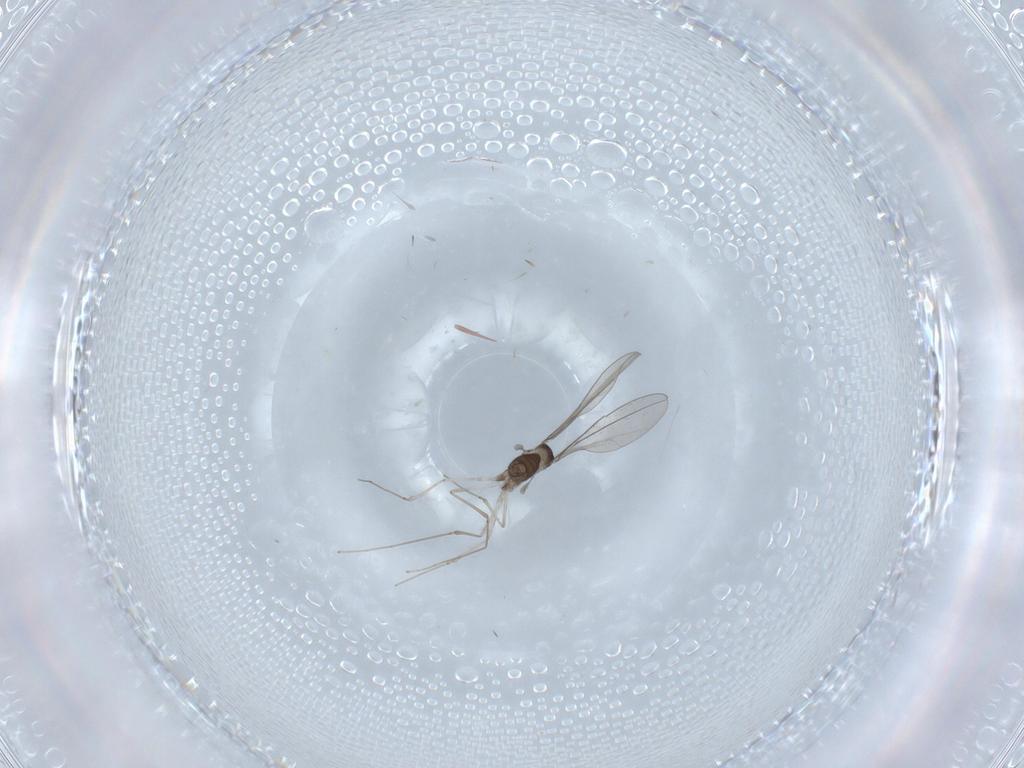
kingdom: Animalia
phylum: Arthropoda
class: Insecta
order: Diptera
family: Cecidomyiidae
